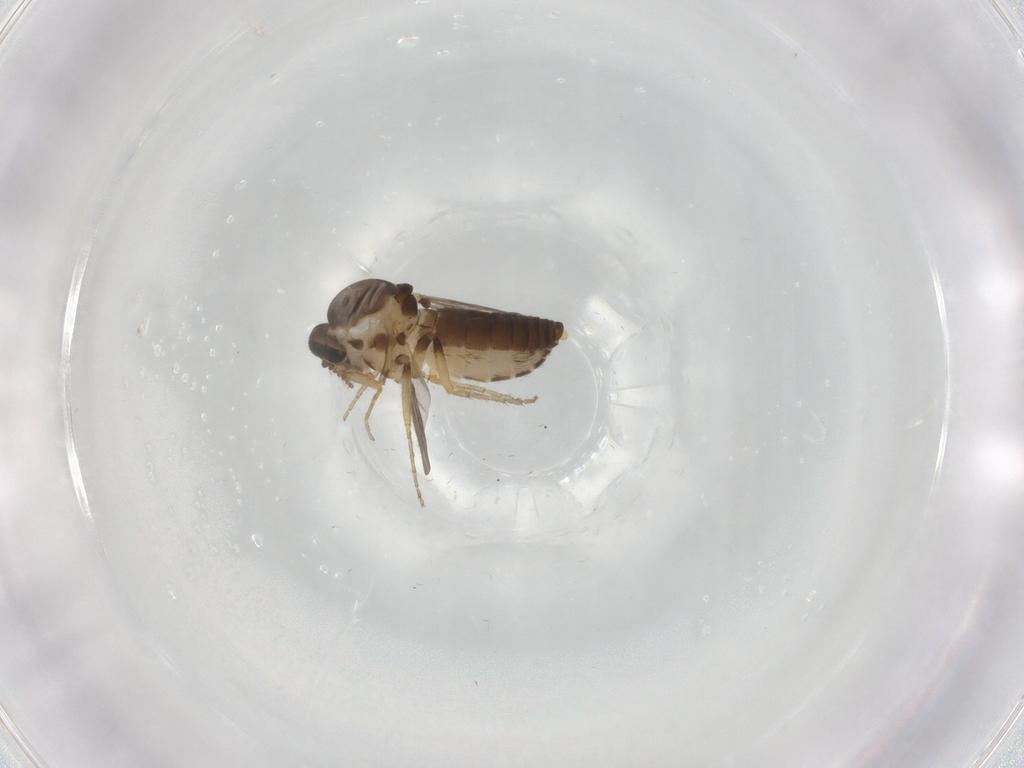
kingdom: Animalia
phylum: Arthropoda
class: Insecta
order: Diptera
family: Ceratopogonidae
